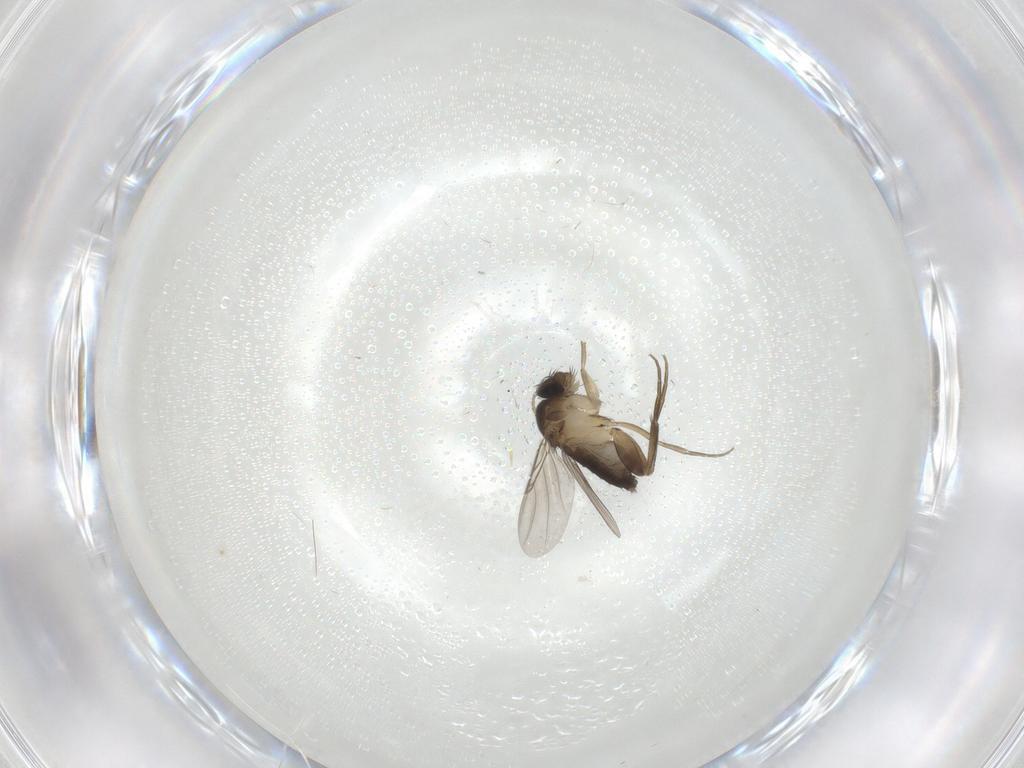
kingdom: Animalia
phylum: Arthropoda
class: Insecta
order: Diptera
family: Phoridae
